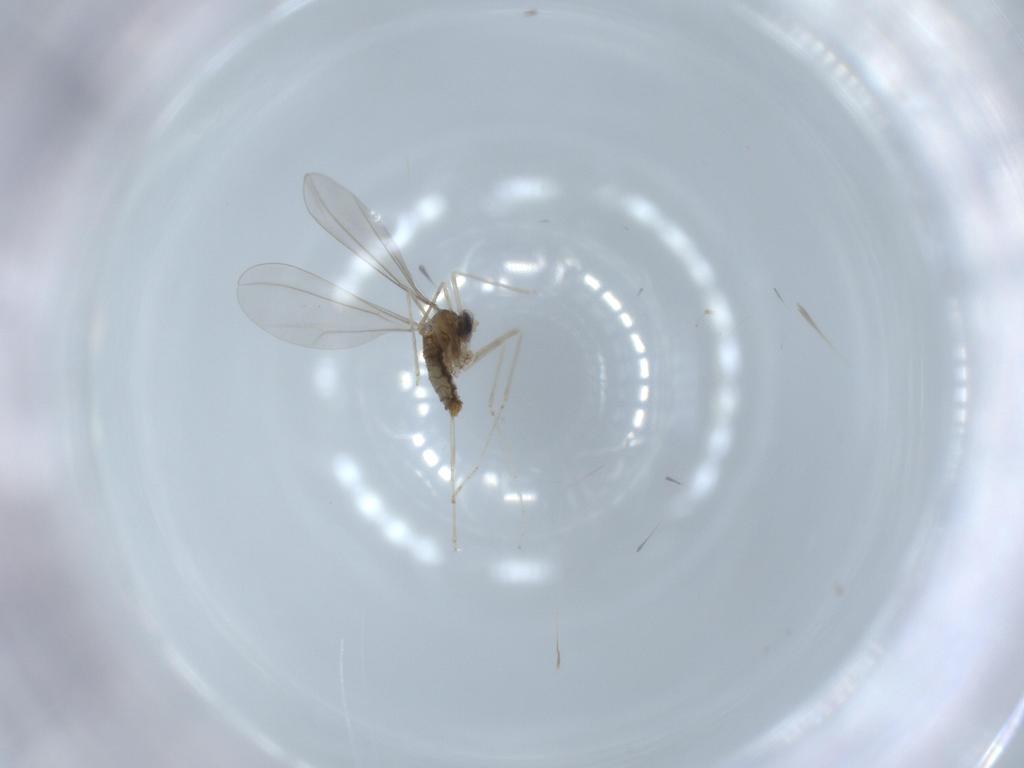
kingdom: Animalia
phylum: Arthropoda
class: Insecta
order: Diptera
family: Cecidomyiidae
